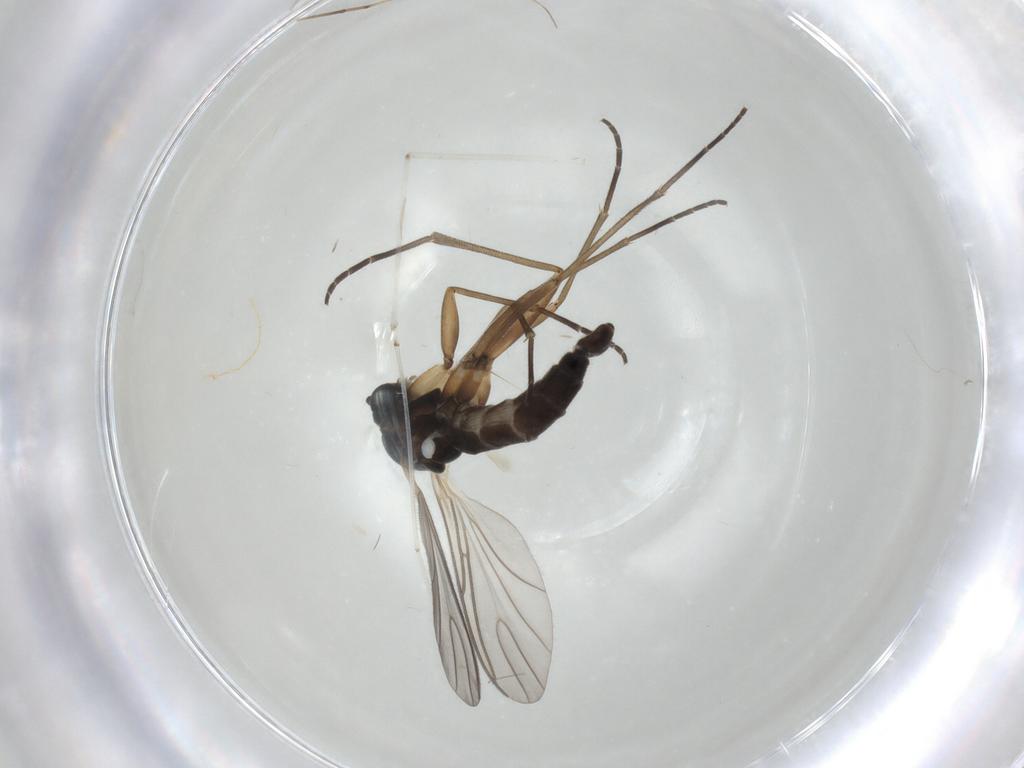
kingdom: Animalia
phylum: Arthropoda
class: Insecta
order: Diptera
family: Sciaridae
